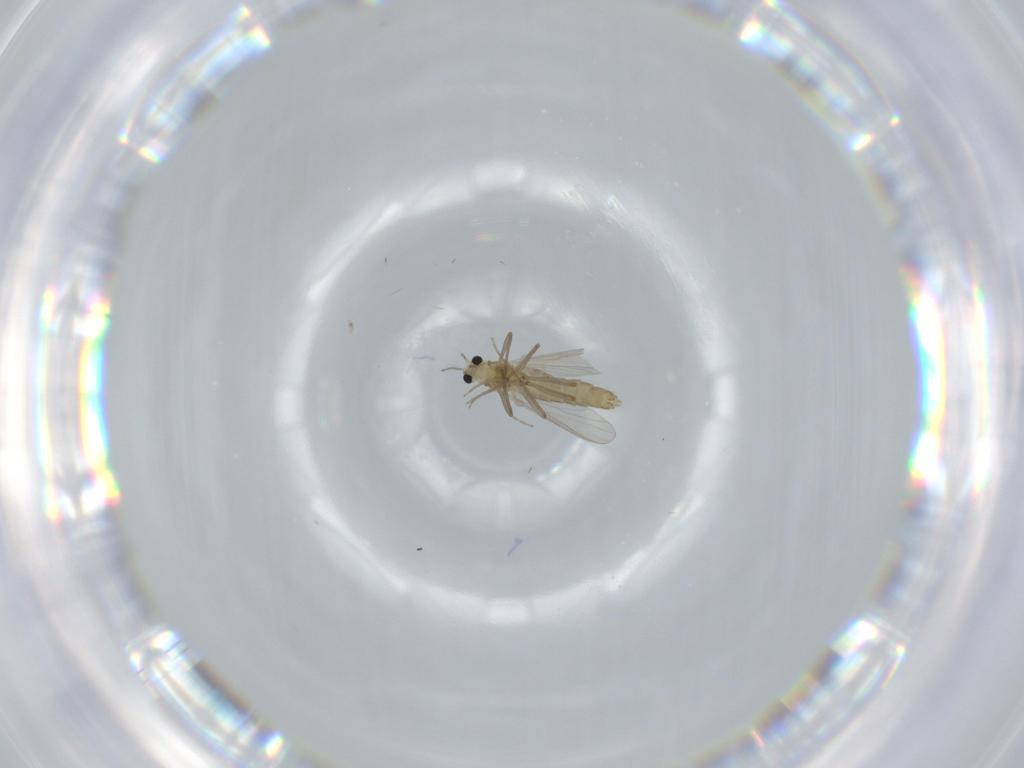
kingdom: Animalia
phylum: Arthropoda
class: Insecta
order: Diptera
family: Chironomidae
